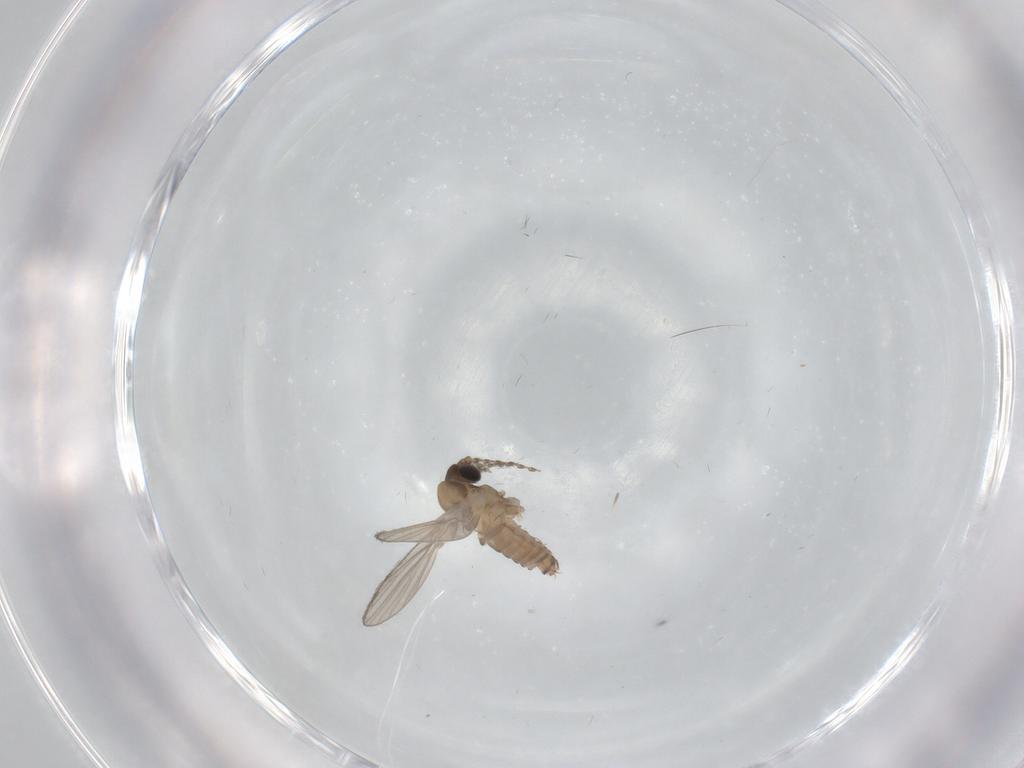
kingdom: Animalia
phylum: Arthropoda
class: Insecta
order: Diptera
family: Psychodidae
